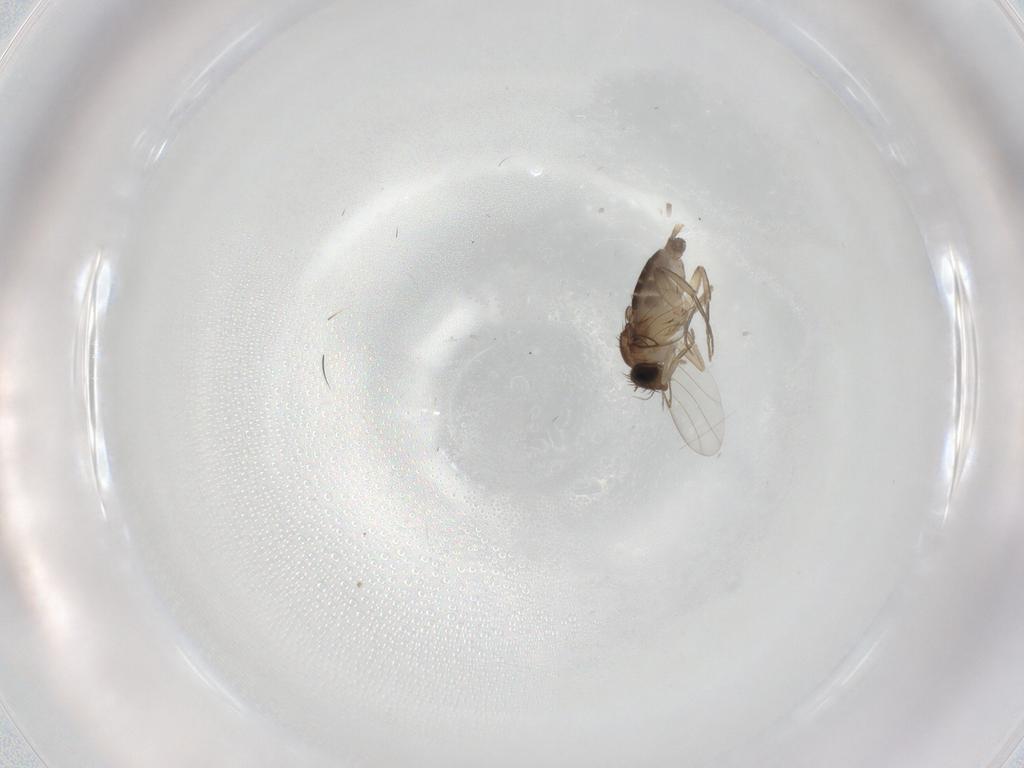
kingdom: Animalia
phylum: Arthropoda
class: Insecta
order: Diptera
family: Ceratopogonidae
